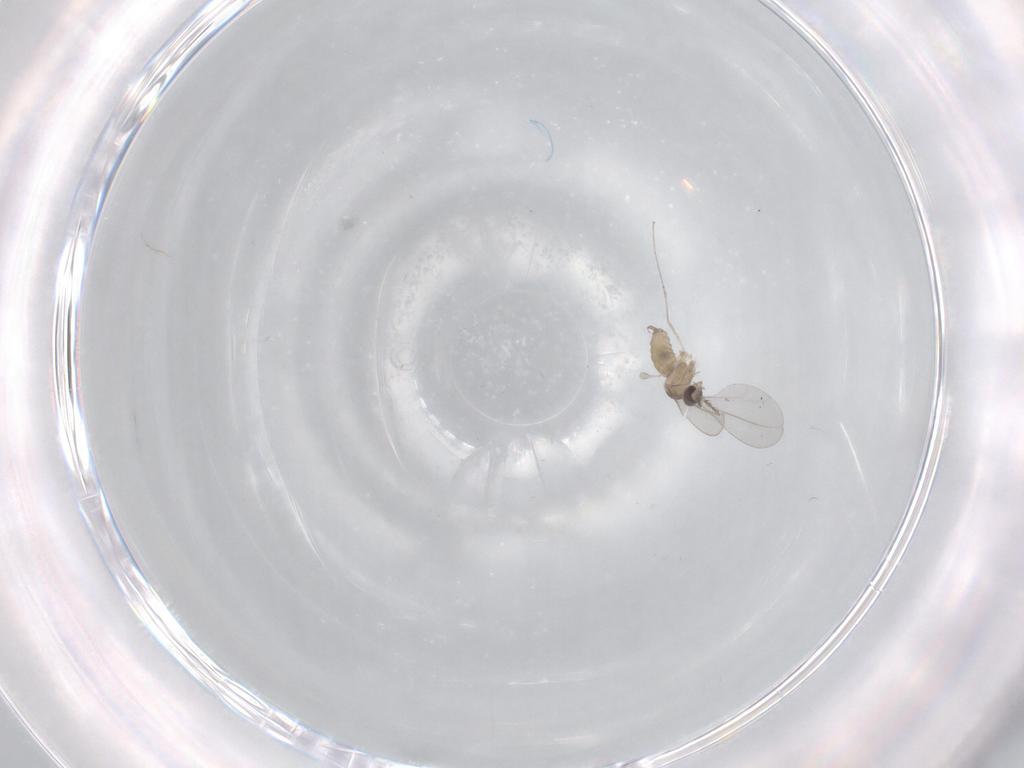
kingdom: Animalia
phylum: Arthropoda
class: Insecta
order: Diptera
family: Cecidomyiidae
